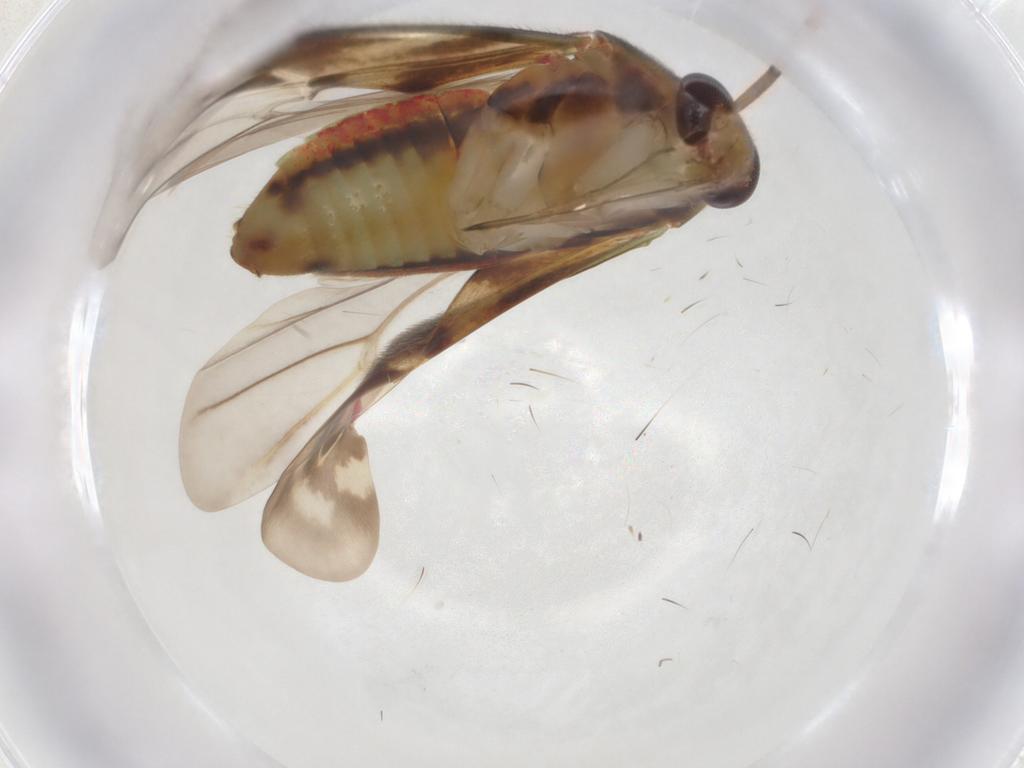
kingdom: Animalia
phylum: Arthropoda
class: Insecta
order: Hemiptera
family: Miridae
